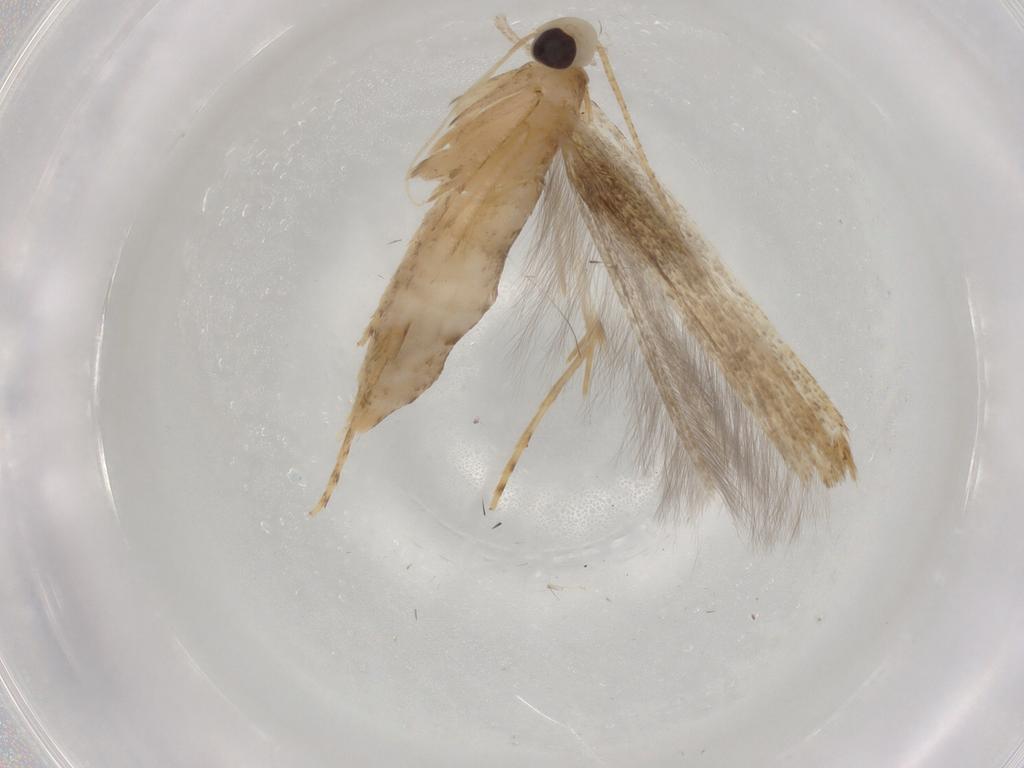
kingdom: Animalia
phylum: Arthropoda
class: Insecta
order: Lepidoptera
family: Batrachedridae
